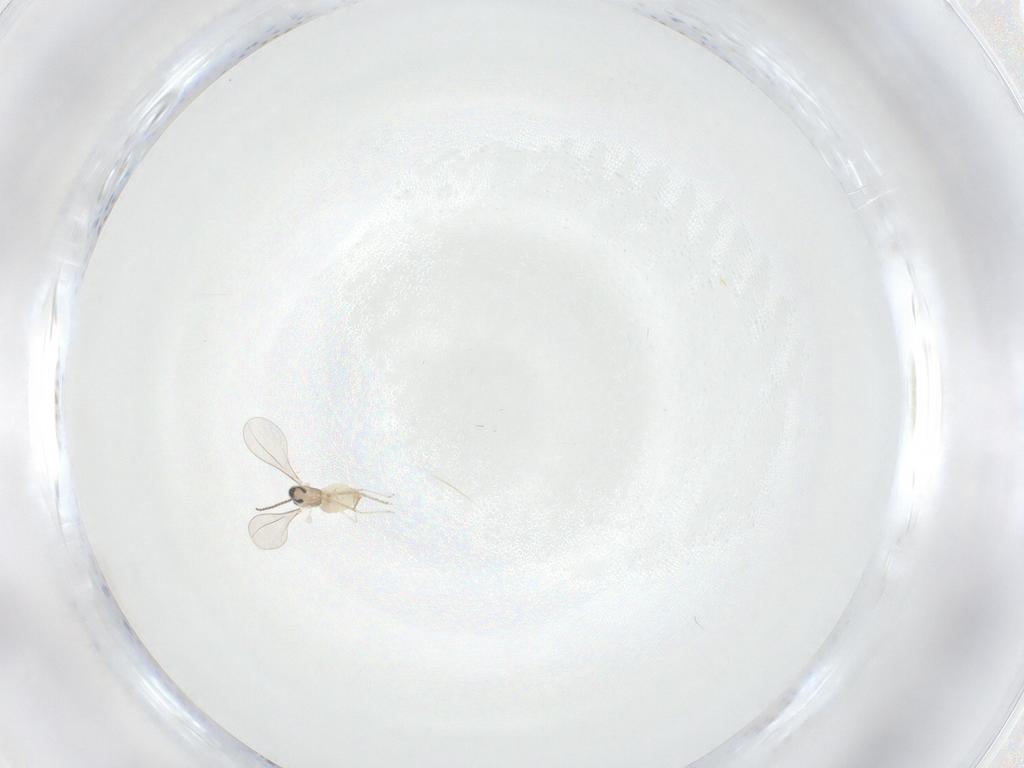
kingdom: Animalia
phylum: Arthropoda
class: Insecta
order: Diptera
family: Cecidomyiidae
